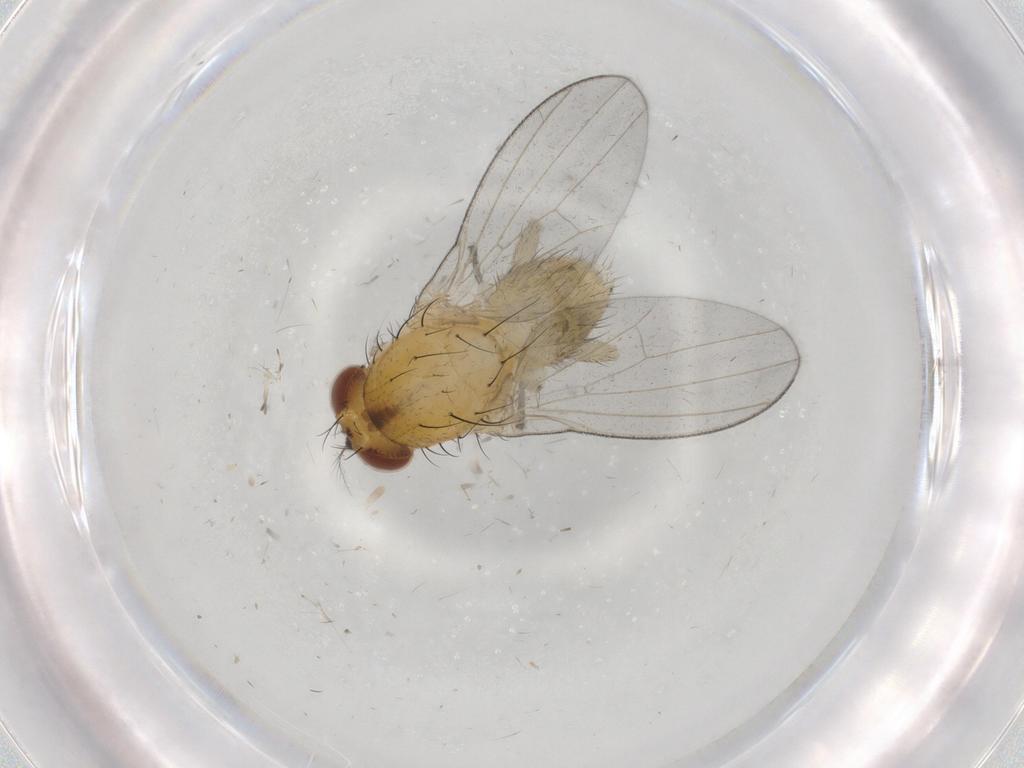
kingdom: Animalia
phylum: Arthropoda
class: Insecta
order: Diptera
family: Lauxaniidae
